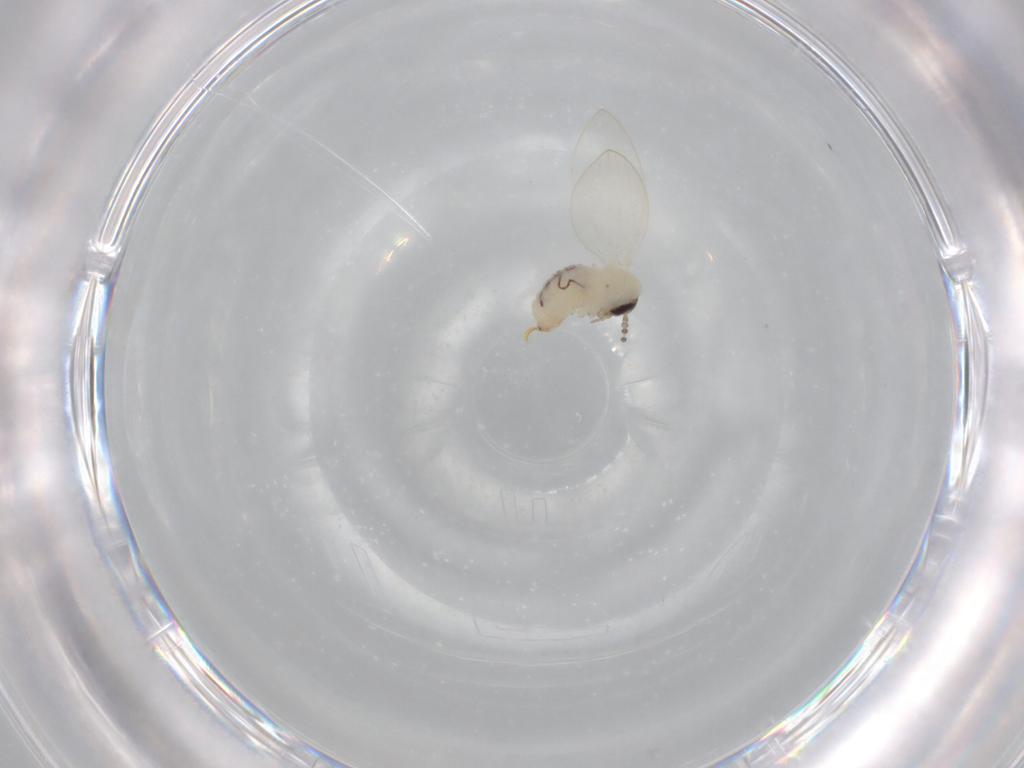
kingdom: Animalia
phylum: Arthropoda
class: Insecta
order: Diptera
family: Psychodidae
